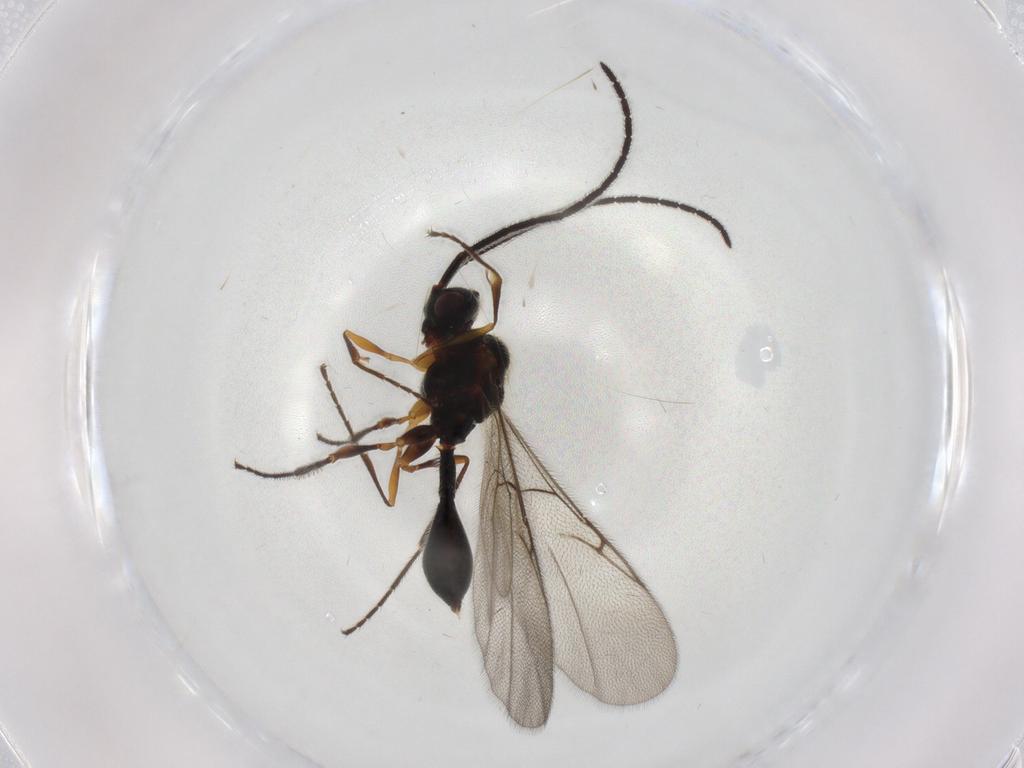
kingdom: Animalia
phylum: Arthropoda
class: Insecta
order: Hymenoptera
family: Diapriidae
